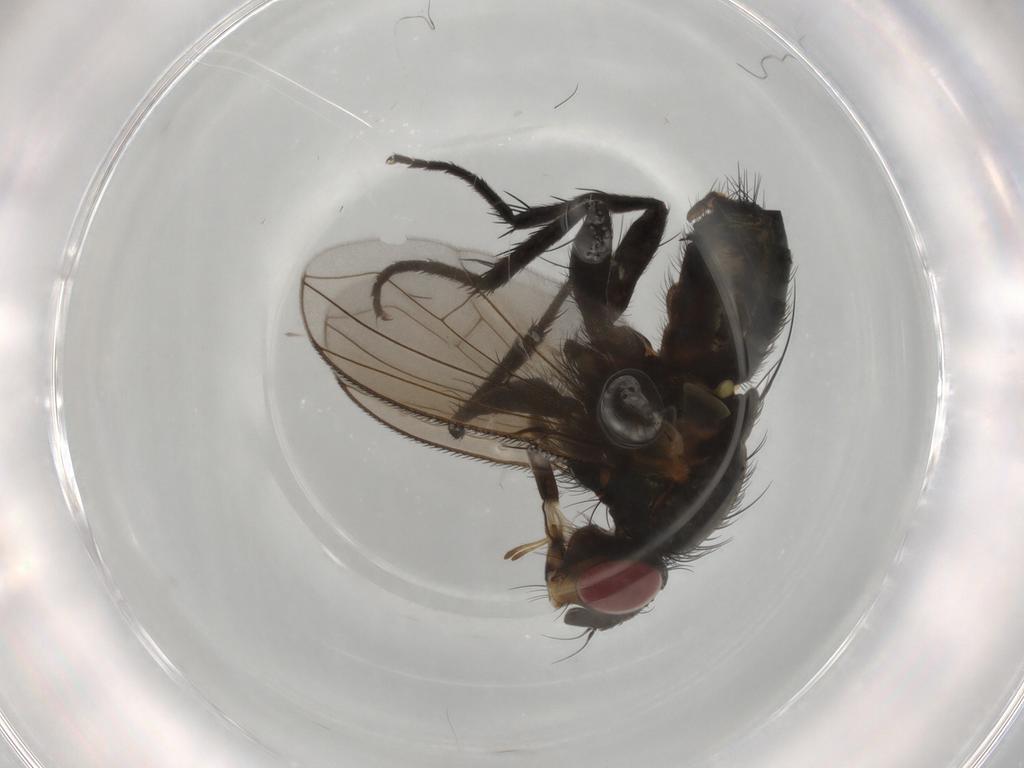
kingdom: Animalia
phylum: Arthropoda
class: Insecta
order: Diptera
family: Calliphoridae
